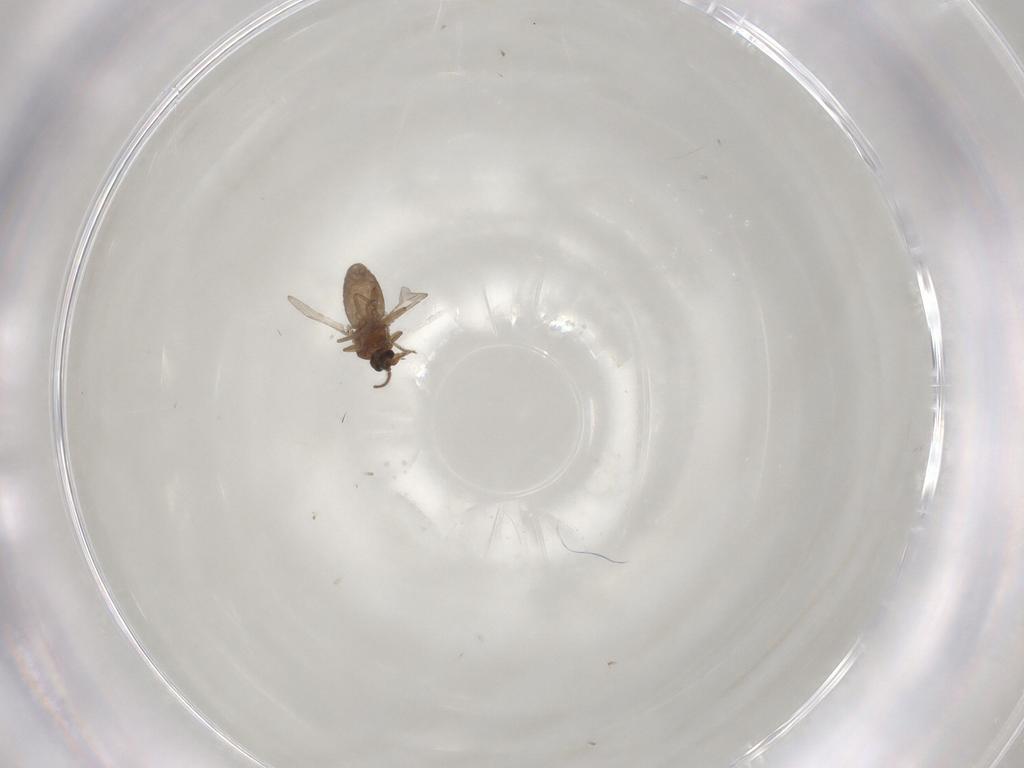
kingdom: Animalia
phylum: Arthropoda
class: Insecta
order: Diptera
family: Ceratopogonidae
